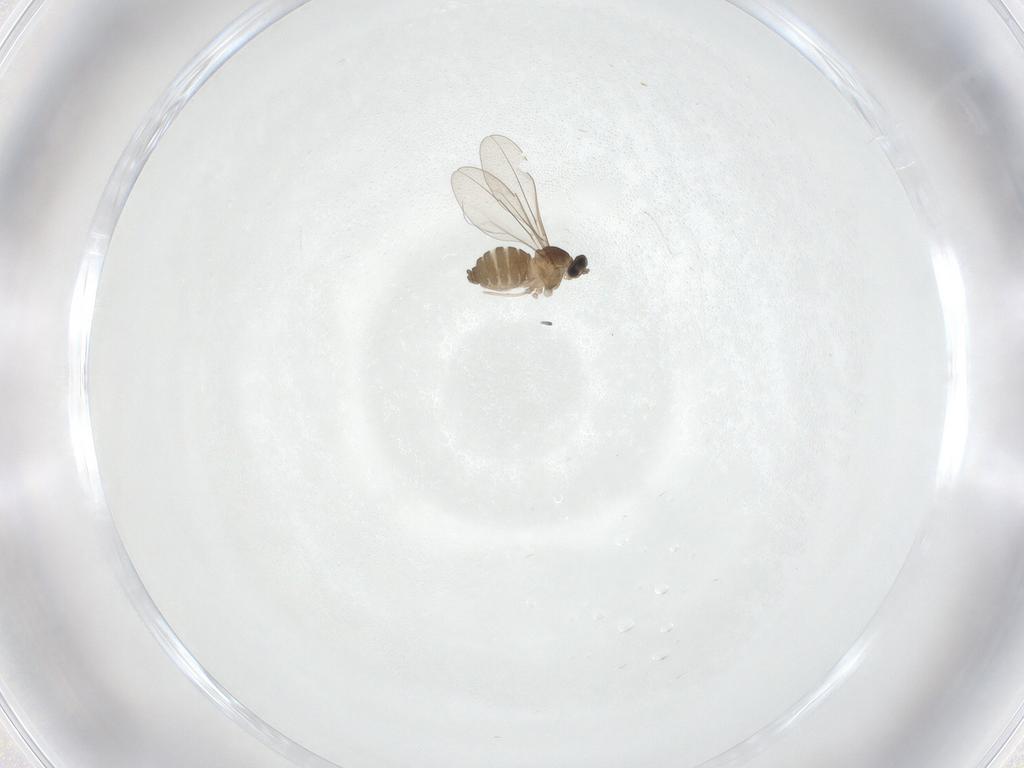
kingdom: Animalia
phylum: Arthropoda
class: Insecta
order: Diptera
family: Cecidomyiidae
